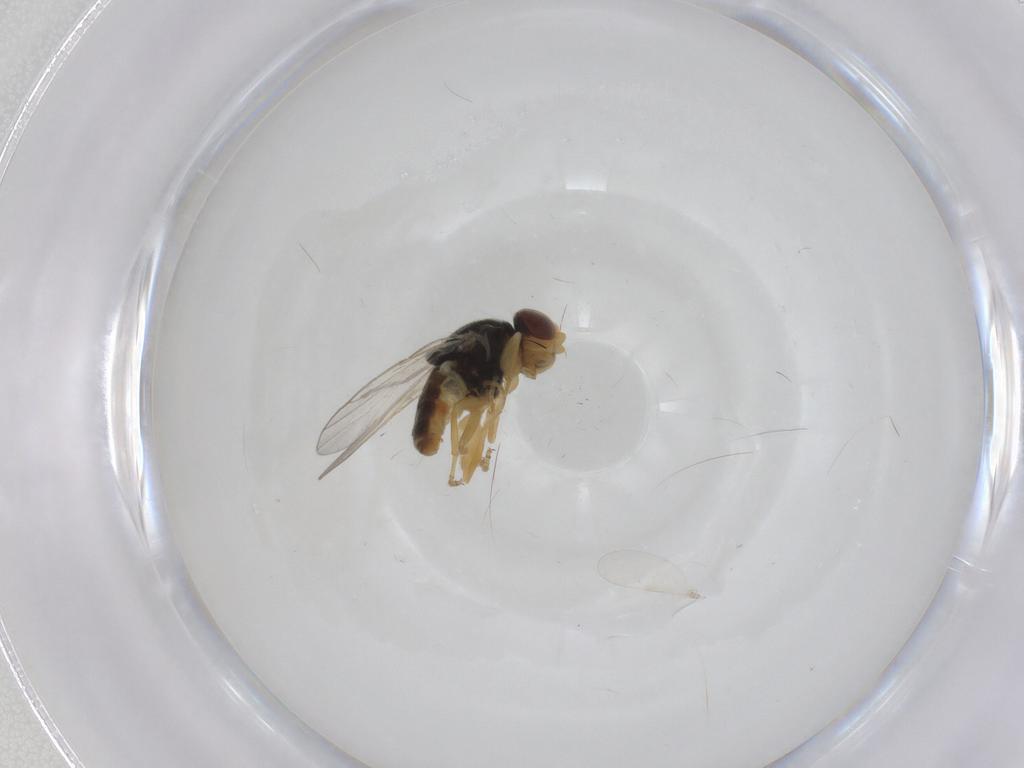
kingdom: Animalia
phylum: Arthropoda
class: Insecta
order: Diptera
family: Chloropidae
